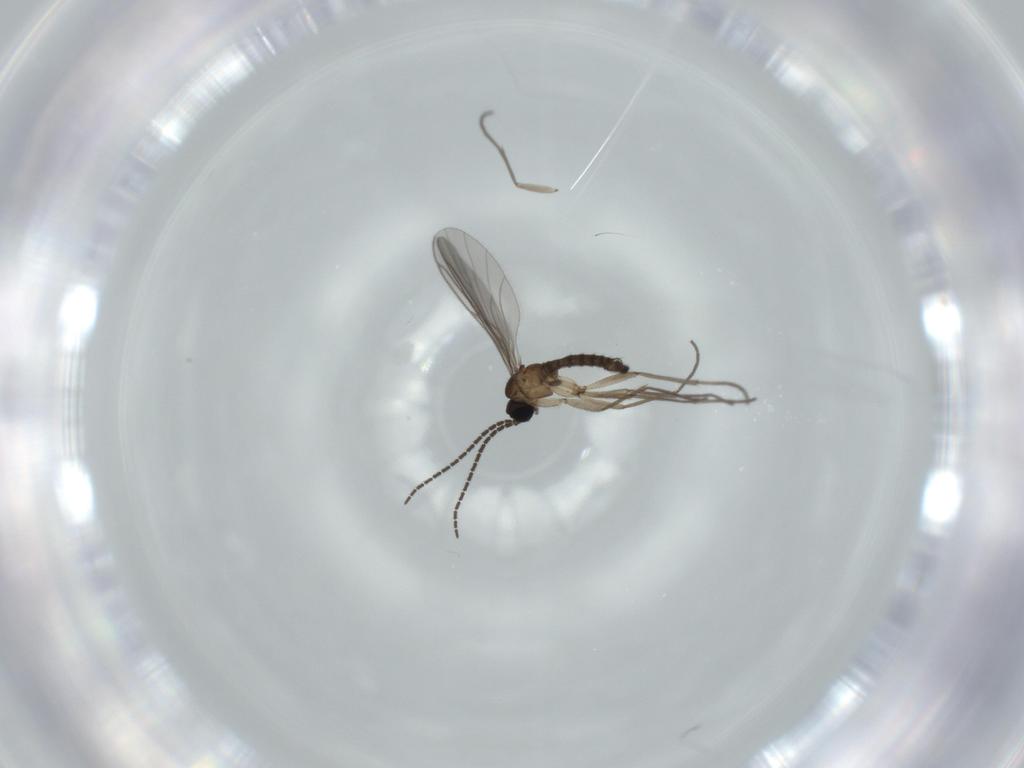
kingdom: Animalia
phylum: Arthropoda
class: Insecta
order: Diptera
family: Sciaridae
